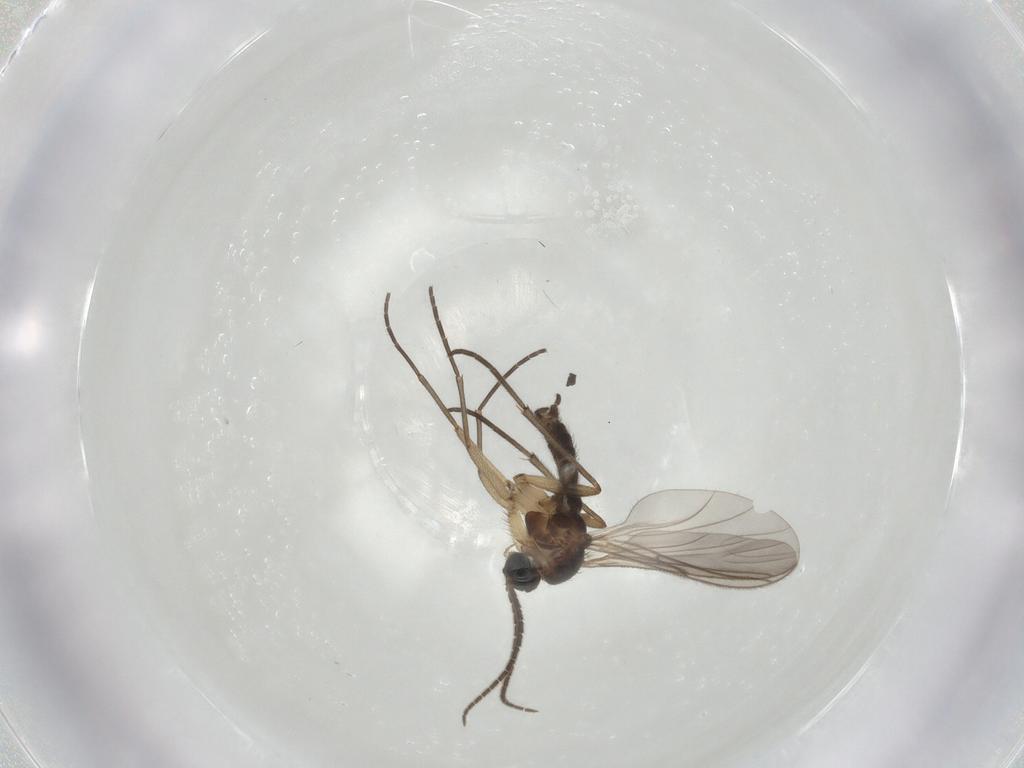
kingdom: Animalia
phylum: Arthropoda
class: Insecta
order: Diptera
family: Sciaridae
